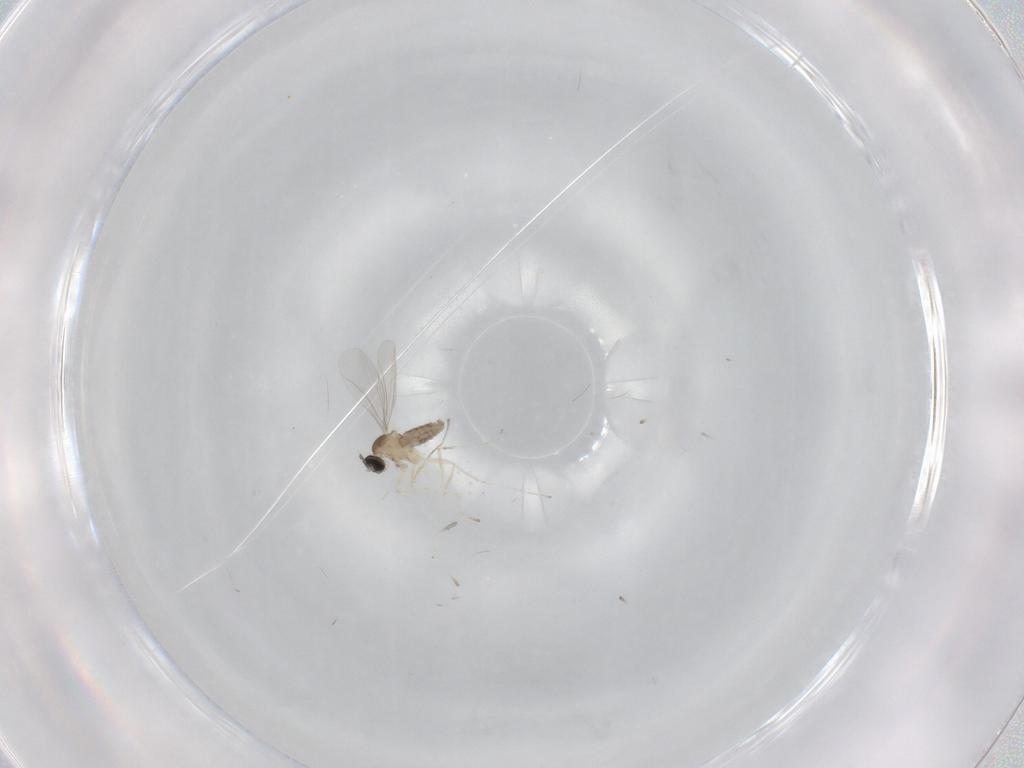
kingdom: Animalia
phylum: Arthropoda
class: Insecta
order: Diptera
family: Cecidomyiidae
